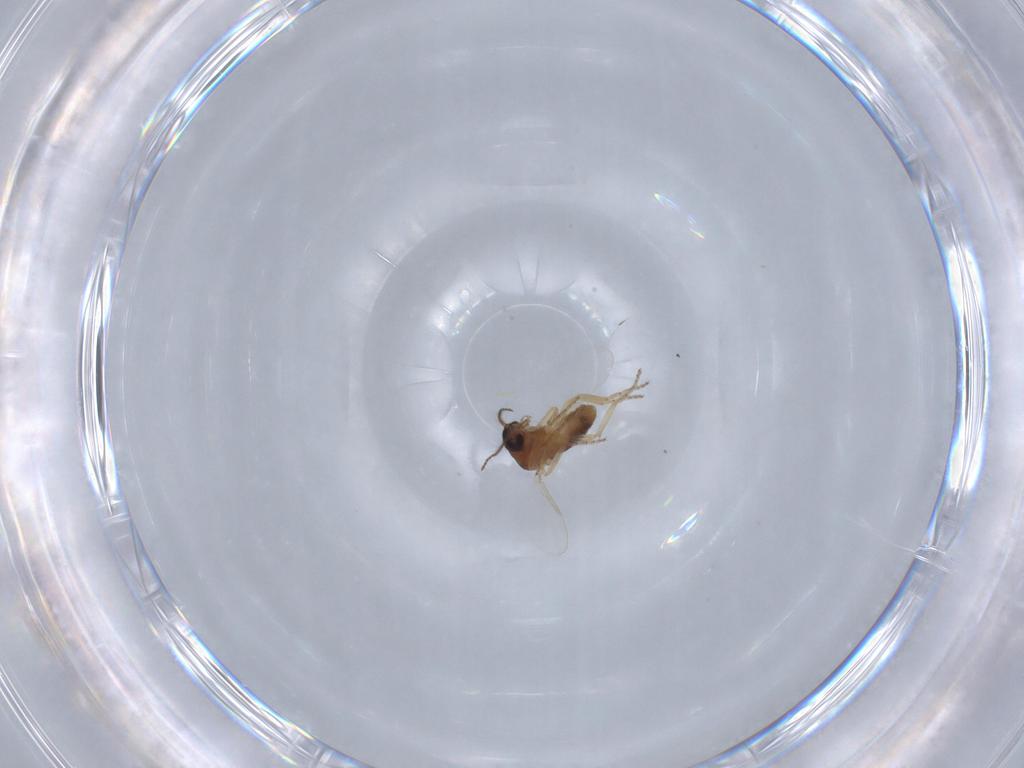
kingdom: Animalia
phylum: Arthropoda
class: Insecta
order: Diptera
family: Ceratopogonidae
